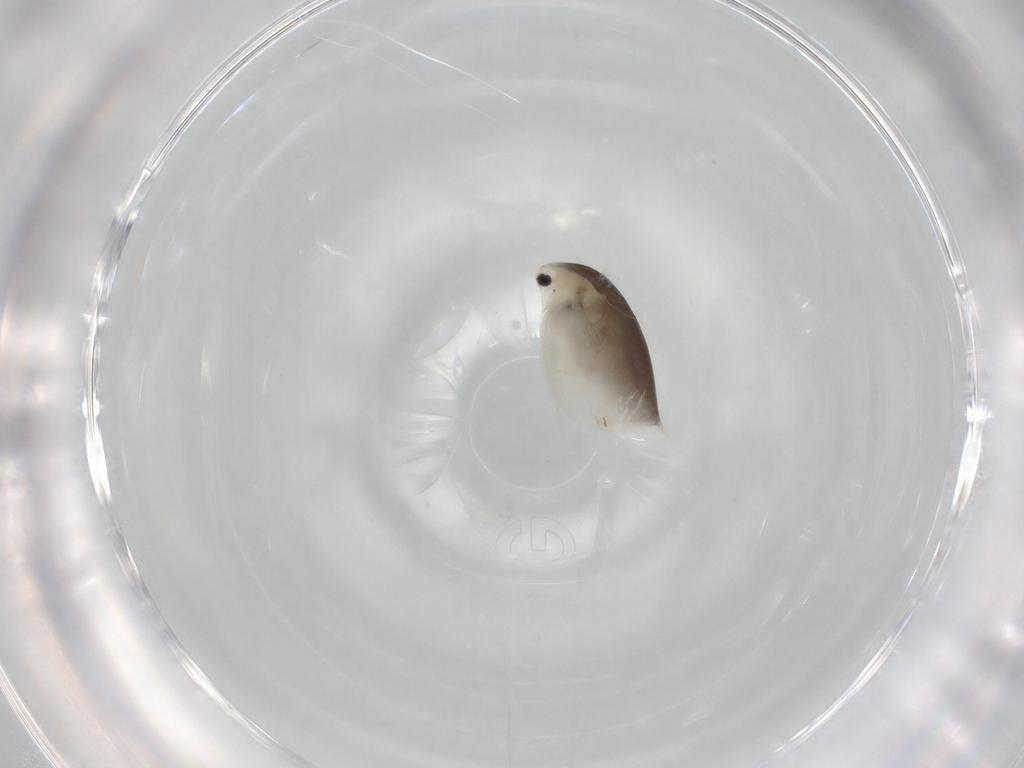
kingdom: Animalia
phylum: Arthropoda
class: Branchiopoda
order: Diplostraca
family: Daphniidae
